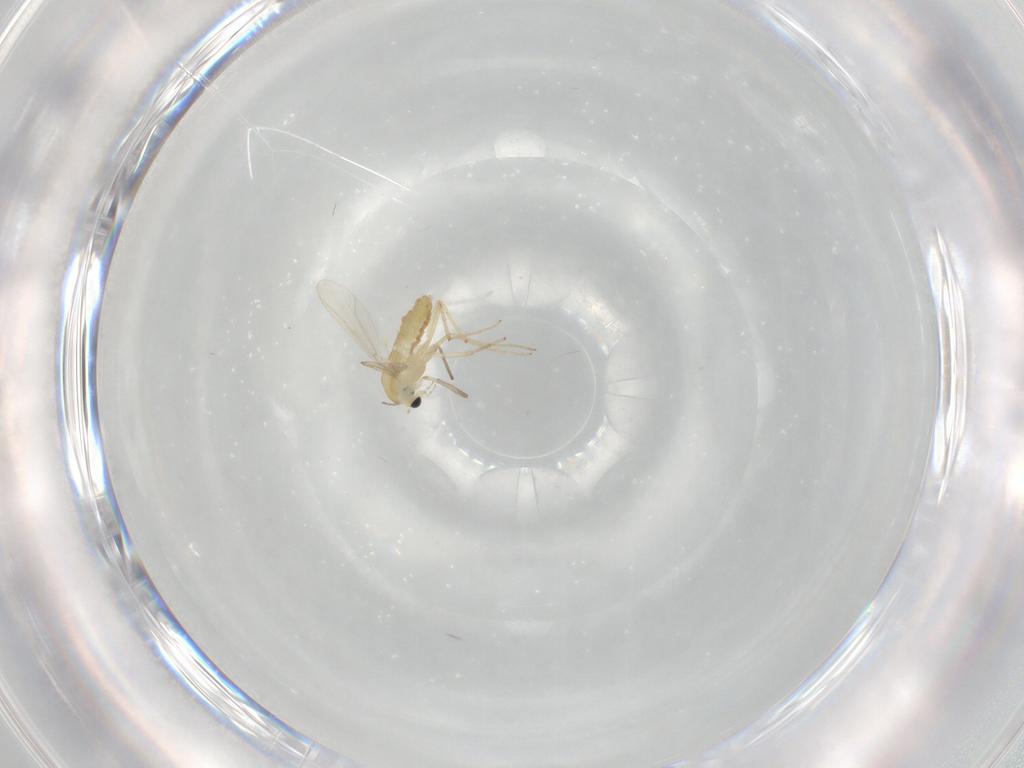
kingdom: Animalia
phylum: Arthropoda
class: Insecta
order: Diptera
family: Chironomidae
